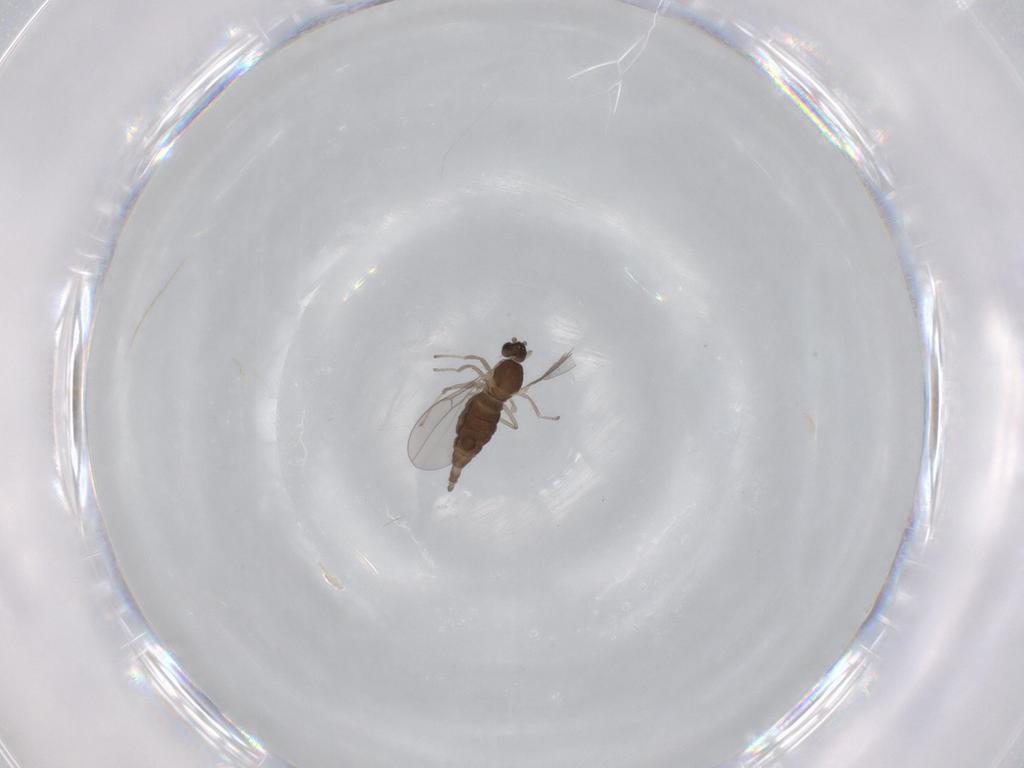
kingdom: Animalia
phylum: Arthropoda
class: Insecta
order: Diptera
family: Cecidomyiidae
